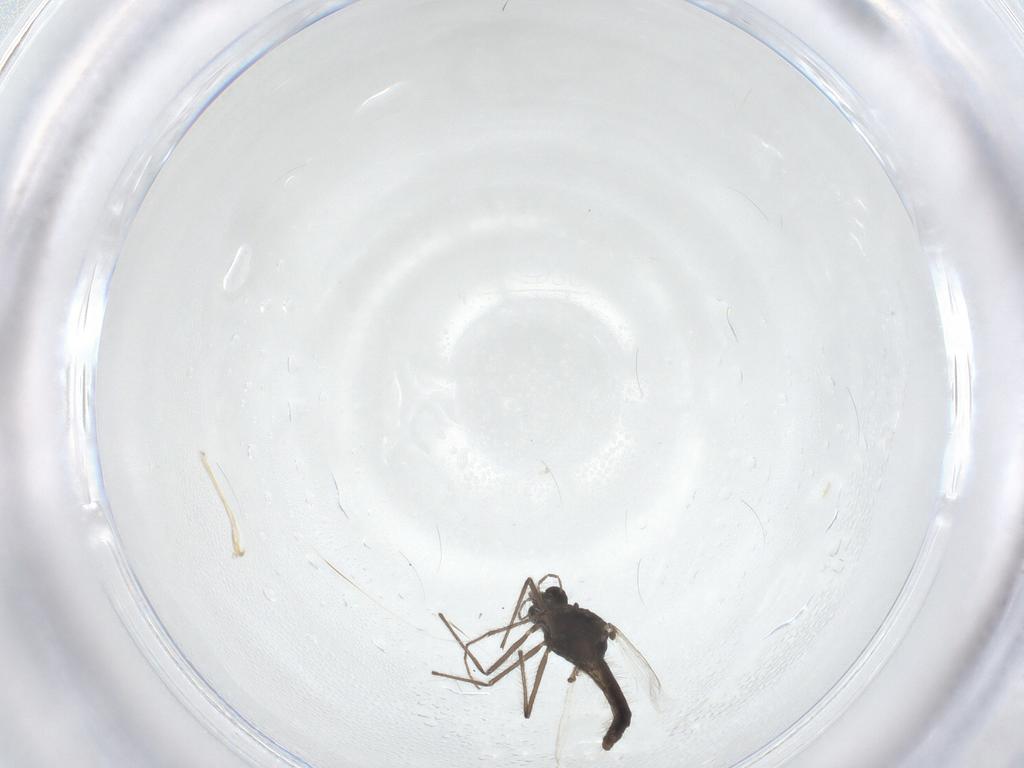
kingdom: Animalia
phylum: Arthropoda
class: Insecta
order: Diptera
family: Chironomidae
